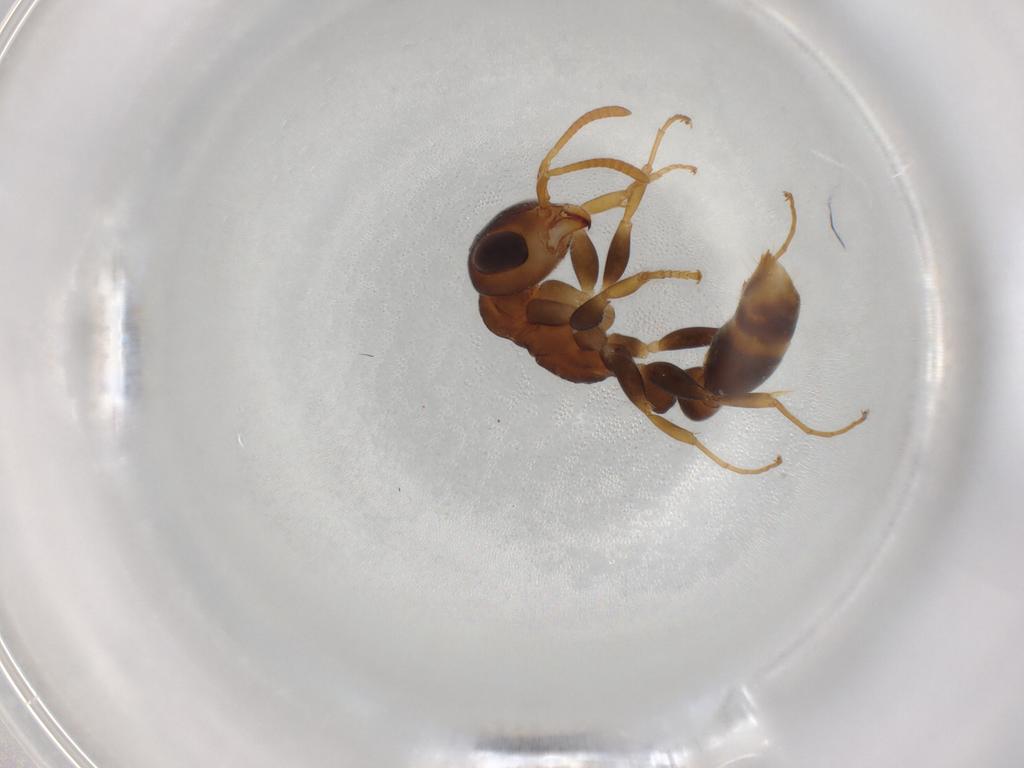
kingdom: Animalia
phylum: Arthropoda
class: Insecta
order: Hymenoptera
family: Formicidae
